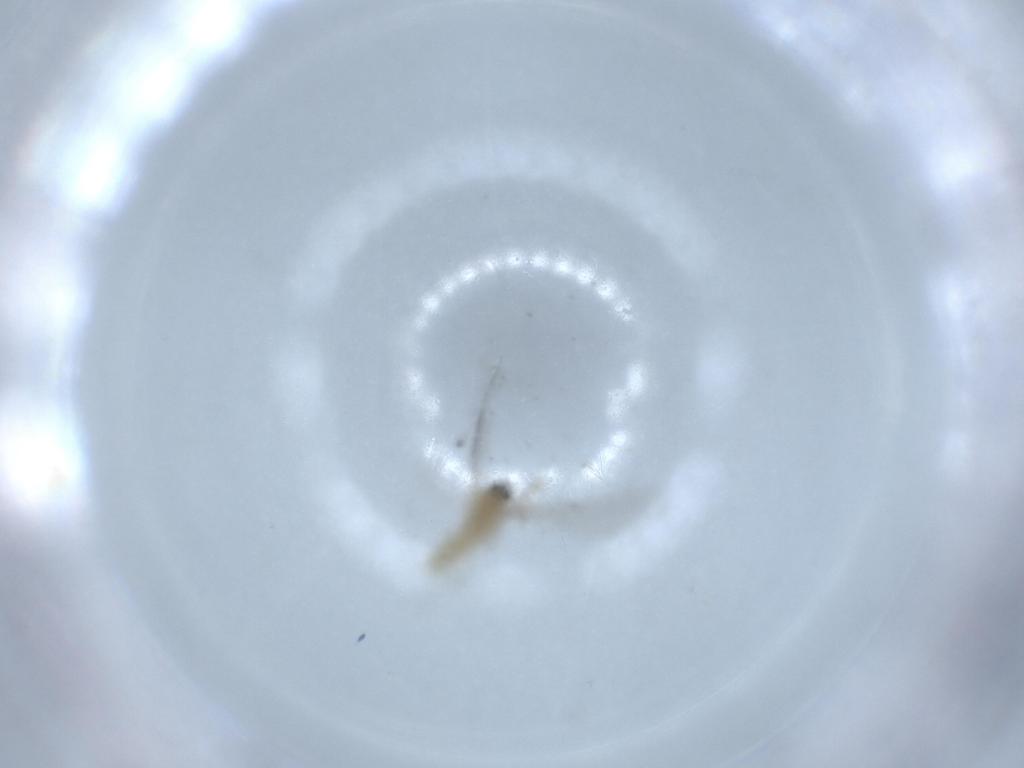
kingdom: Animalia
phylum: Arthropoda
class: Insecta
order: Diptera
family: Cecidomyiidae
